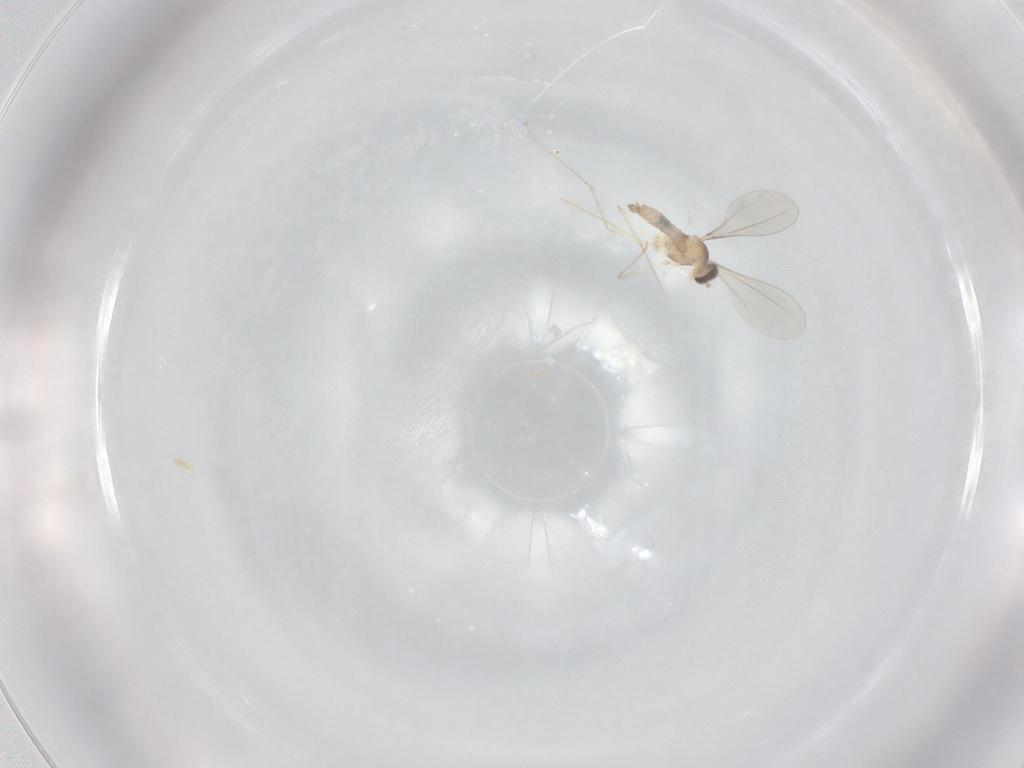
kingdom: Animalia
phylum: Arthropoda
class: Insecta
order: Diptera
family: Cecidomyiidae
